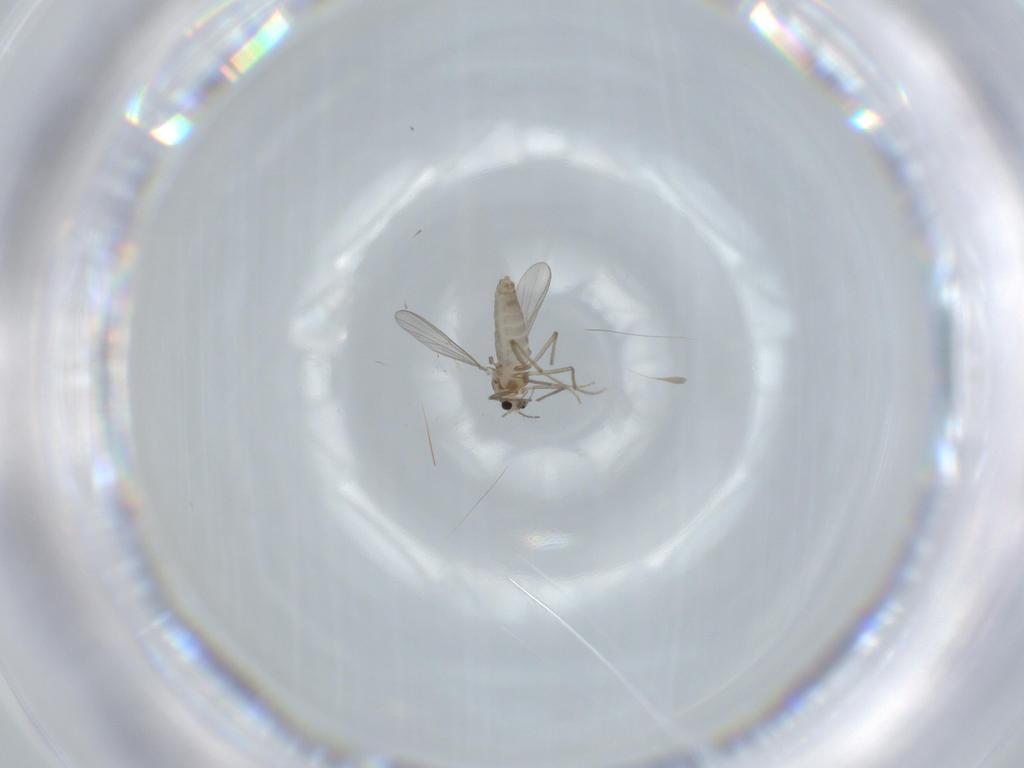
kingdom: Animalia
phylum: Arthropoda
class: Insecta
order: Diptera
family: Chironomidae
